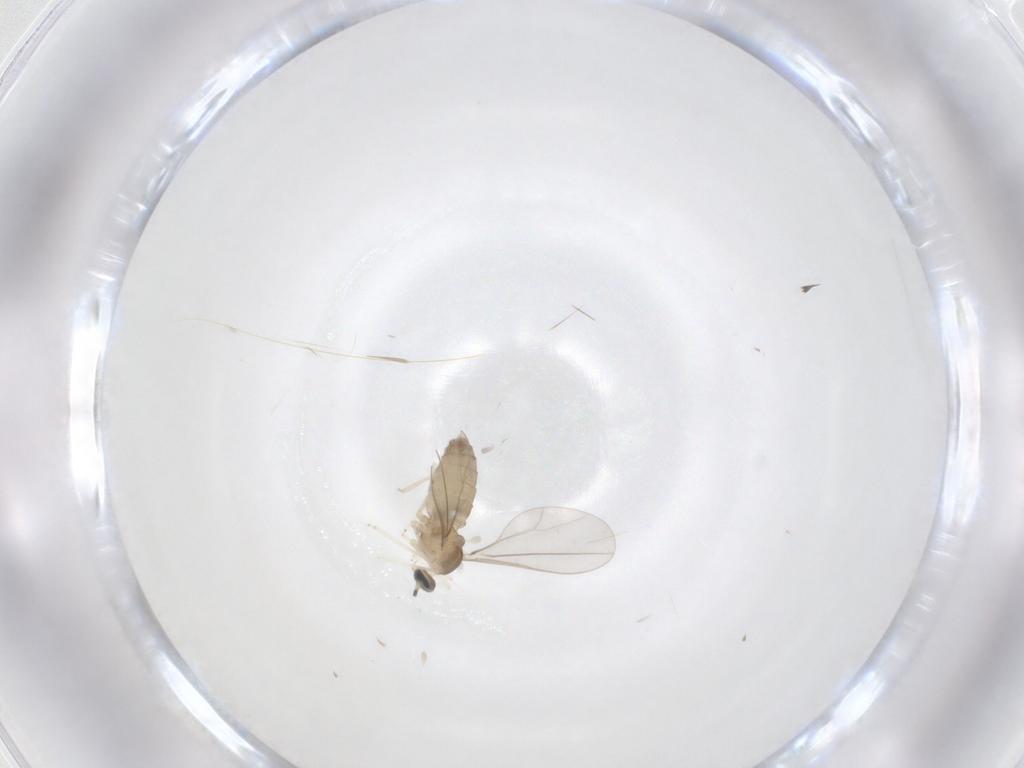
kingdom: Animalia
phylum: Arthropoda
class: Insecta
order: Diptera
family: Cecidomyiidae
